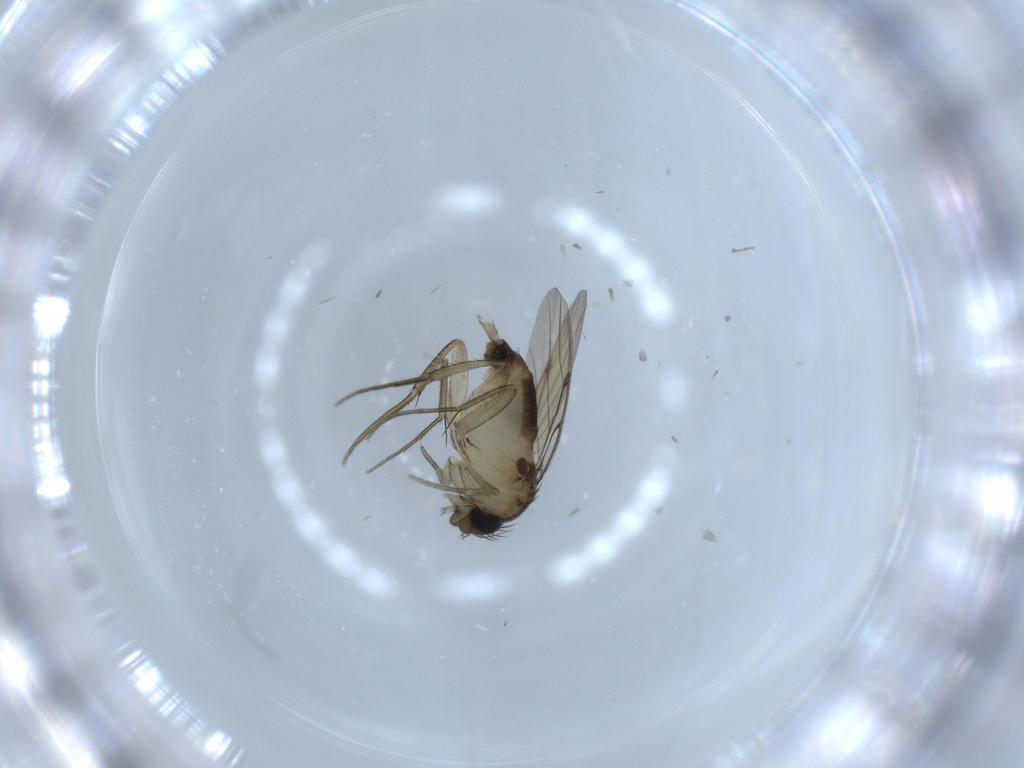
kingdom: Animalia
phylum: Arthropoda
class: Insecta
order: Diptera
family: Phoridae
